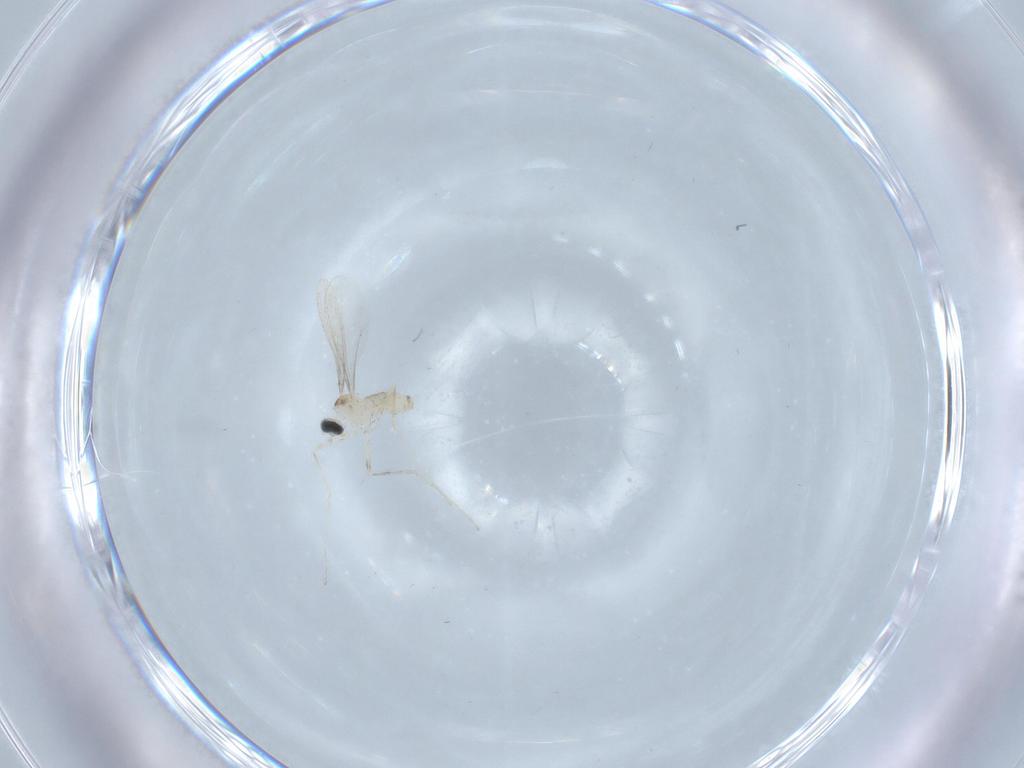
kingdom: Animalia
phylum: Arthropoda
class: Insecta
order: Diptera
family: Cecidomyiidae
